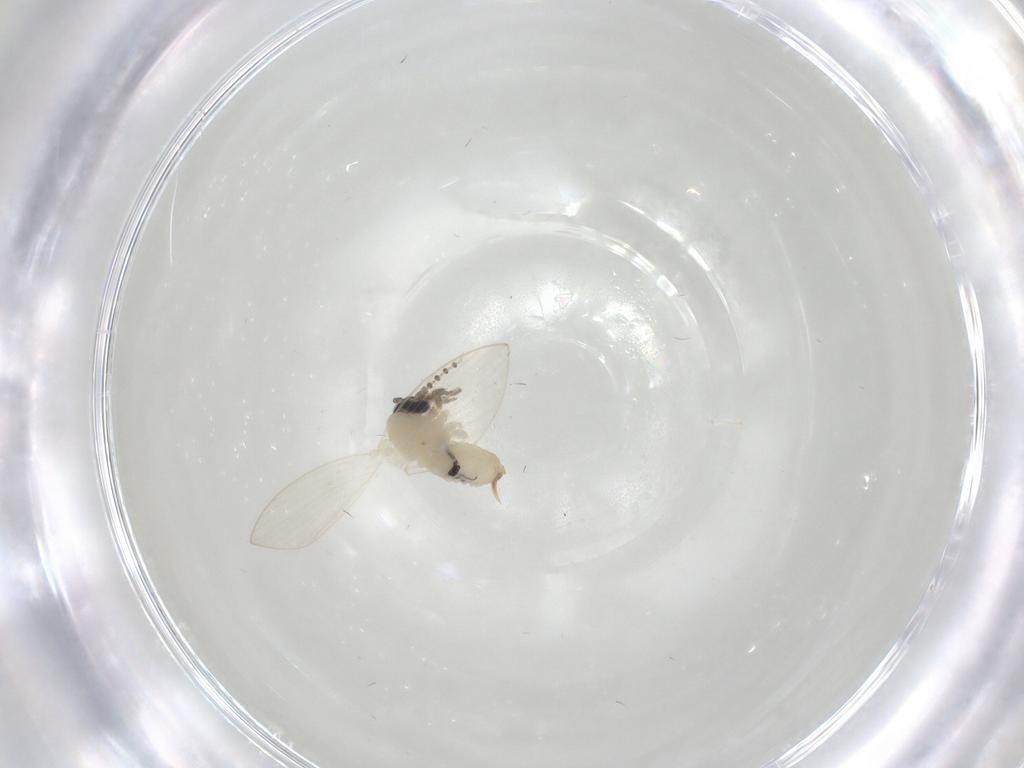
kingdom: Animalia
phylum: Arthropoda
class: Insecta
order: Diptera
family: Psychodidae
